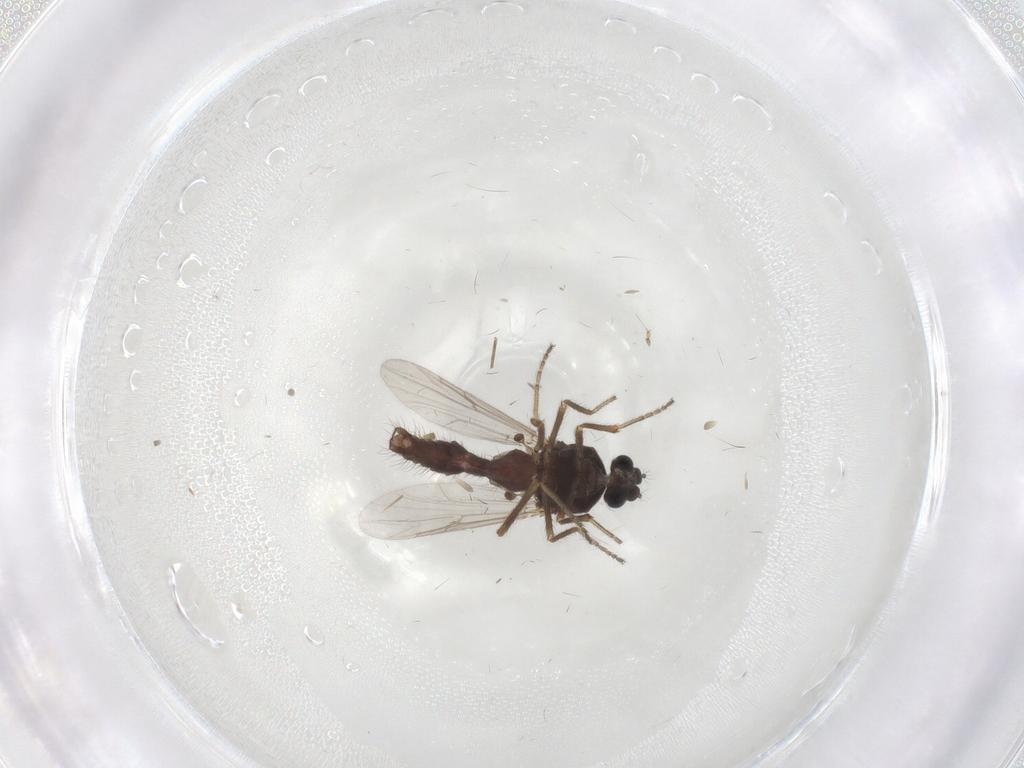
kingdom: Animalia
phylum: Arthropoda
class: Insecta
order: Diptera
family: Ceratopogonidae
